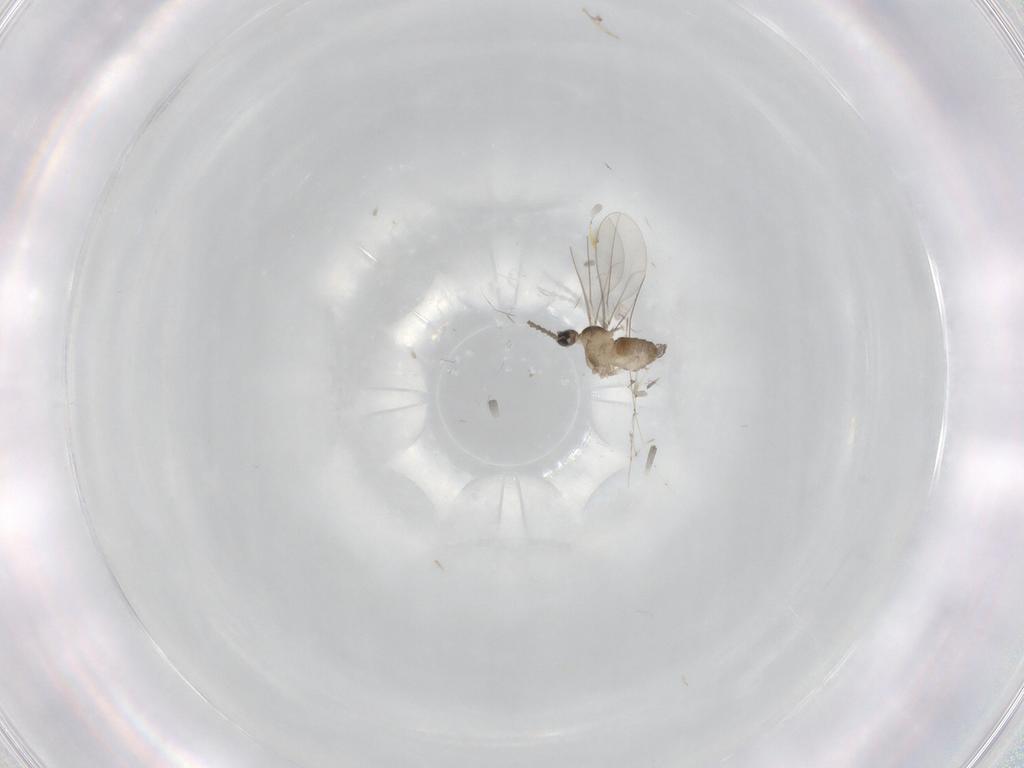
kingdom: Animalia
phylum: Arthropoda
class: Insecta
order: Diptera
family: Cecidomyiidae
